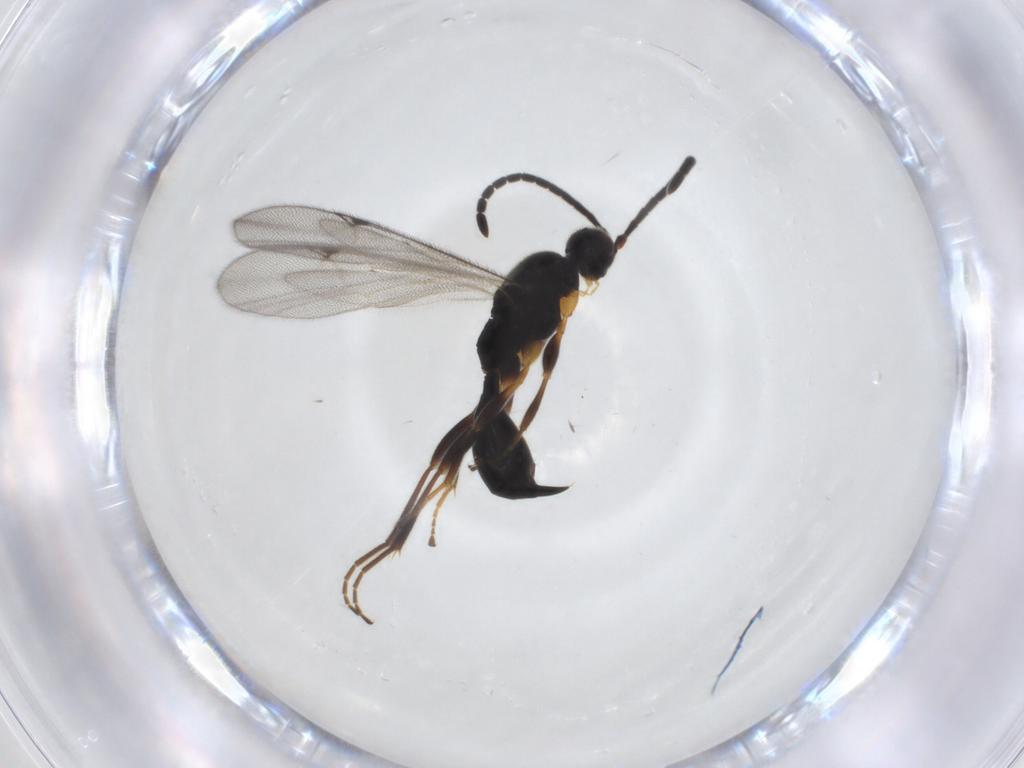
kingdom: Animalia
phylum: Arthropoda
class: Insecta
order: Hymenoptera
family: Proctotrupidae
